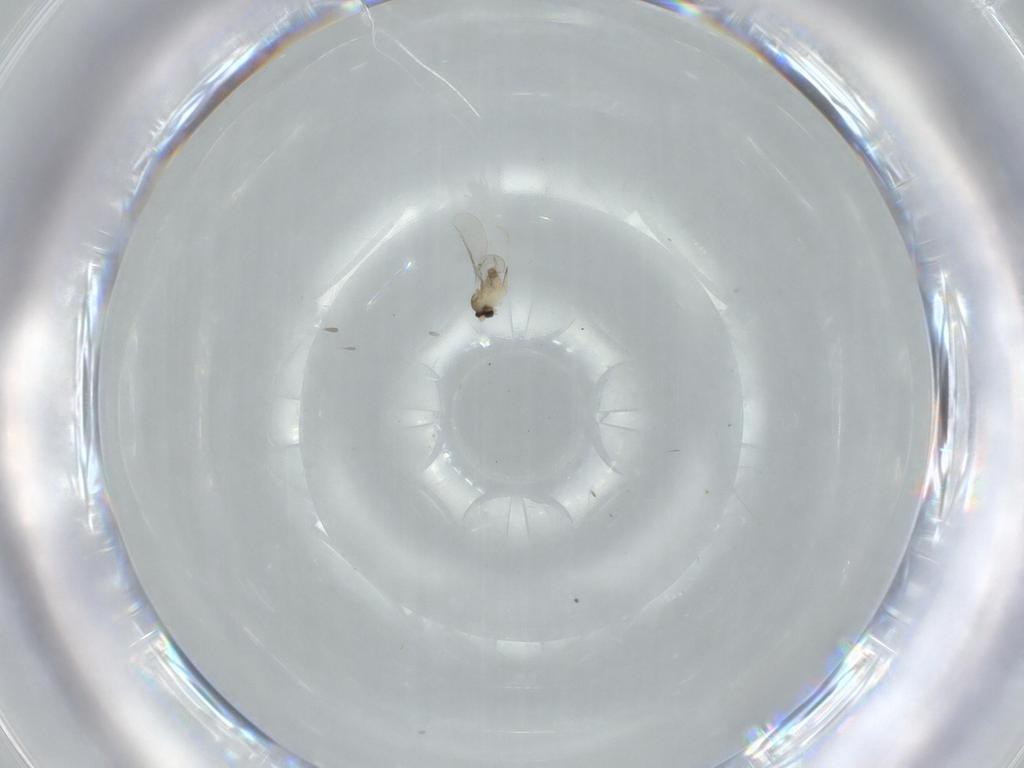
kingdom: Animalia
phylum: Arthropoda
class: Insecta
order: Diptera
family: Cecidomyiidae
